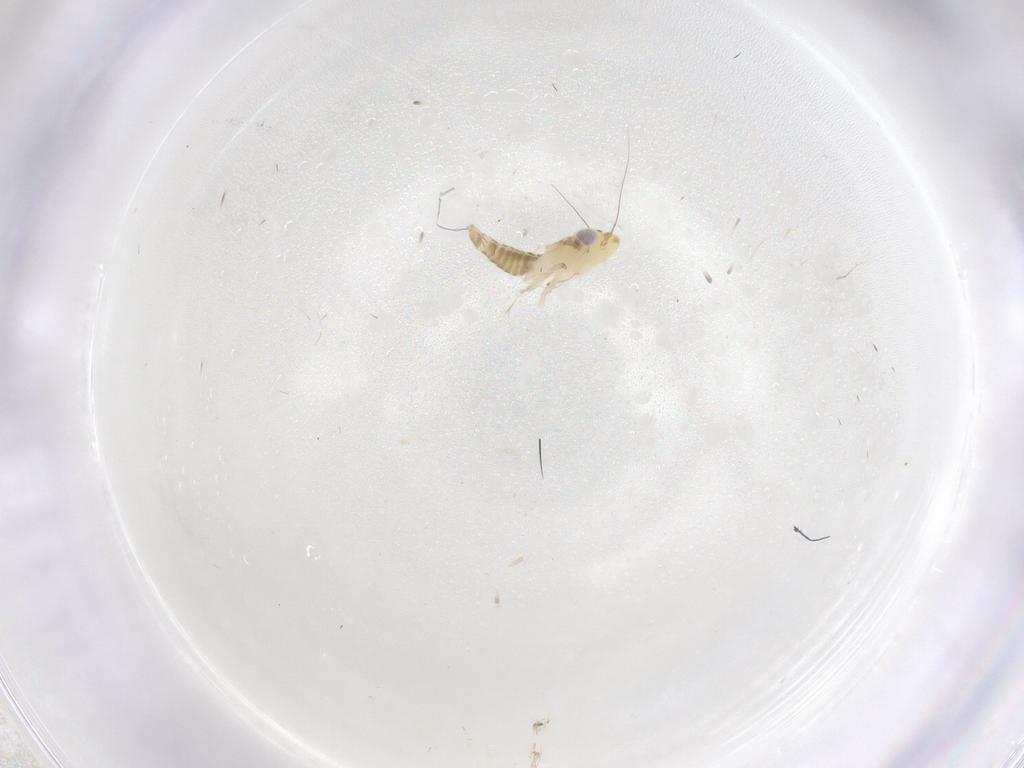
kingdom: Animalia
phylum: Arthropoda
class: Insecta
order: Hemiptera
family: Cicadellidae
